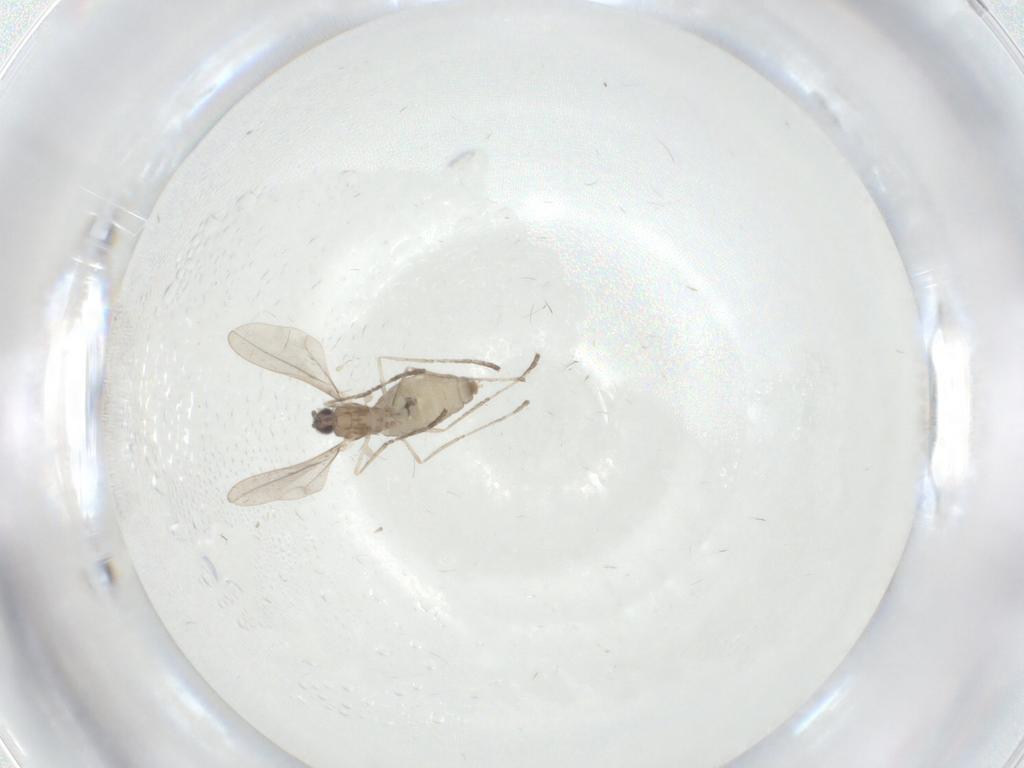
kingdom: Animalia
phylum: Arthropoda
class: Insecta
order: Diptera
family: Cecidomyiidae
